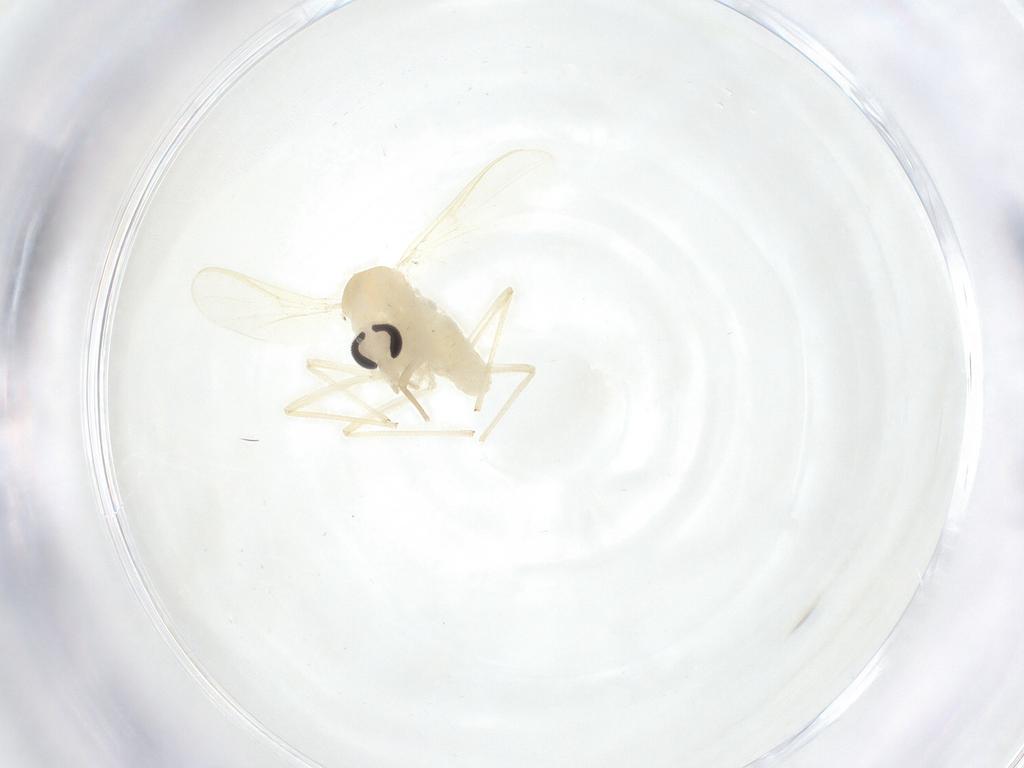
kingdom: Animalia
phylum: Arthropoda
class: Insecta
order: Diptera
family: Chironomidae
